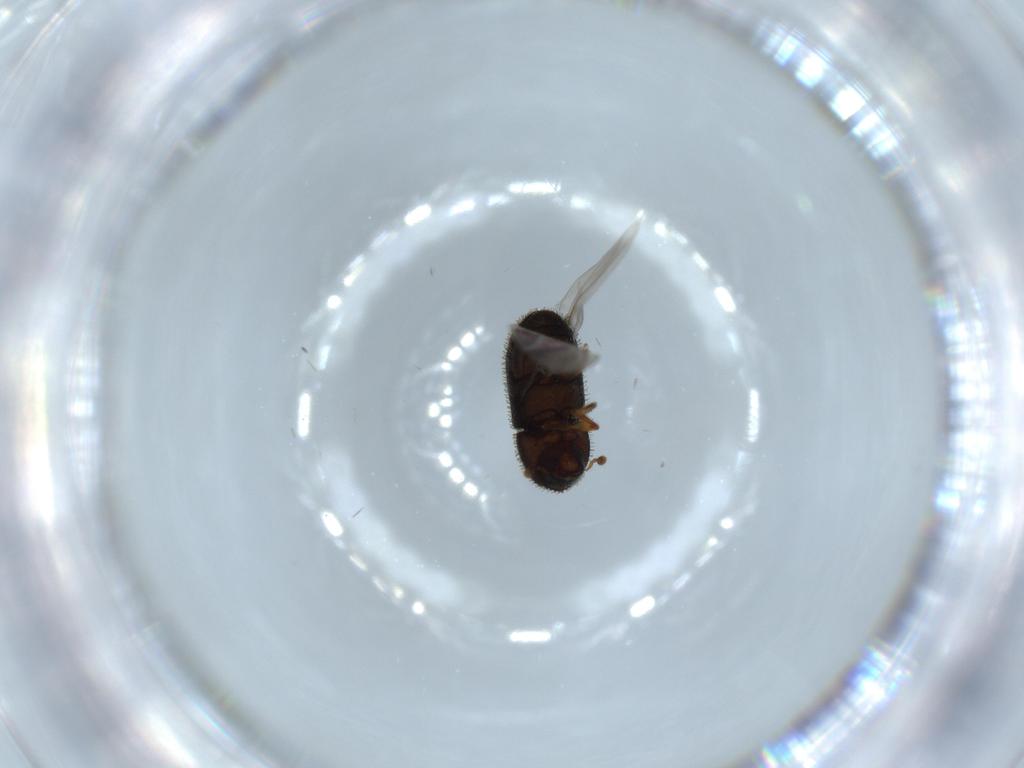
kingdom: Animalia
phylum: Arthropoda
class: Insecta
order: Coleoptera
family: Curculionidae
